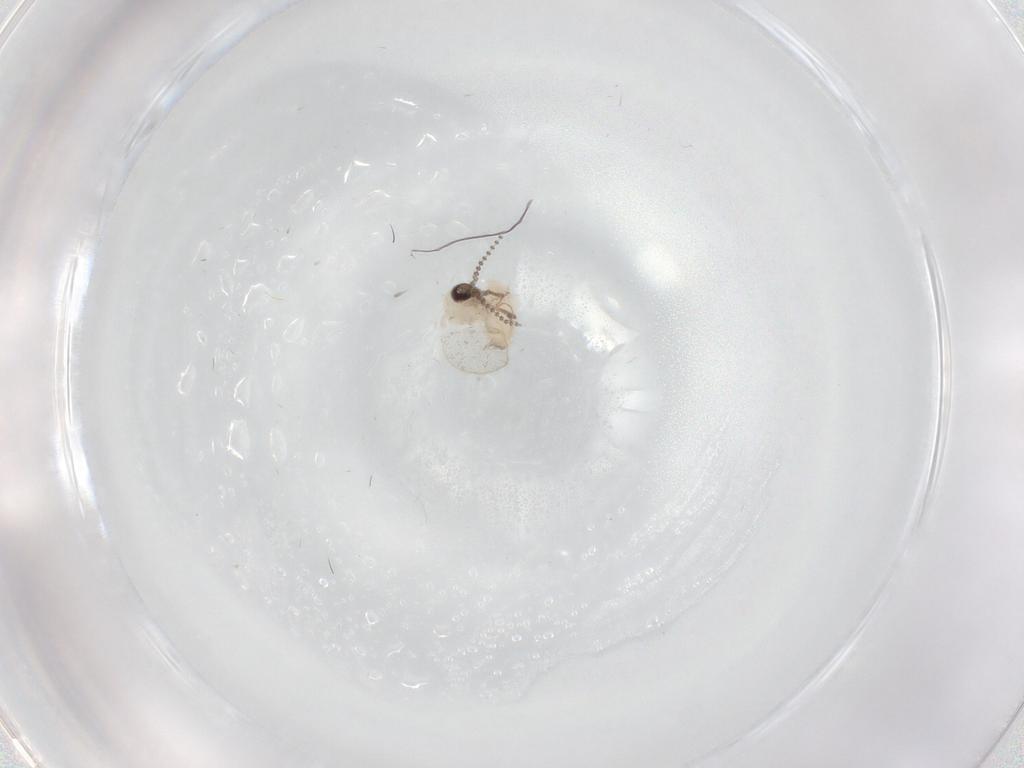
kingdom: Animalia
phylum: Arthropoda
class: Insecta
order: Diptera
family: Psychodidae
